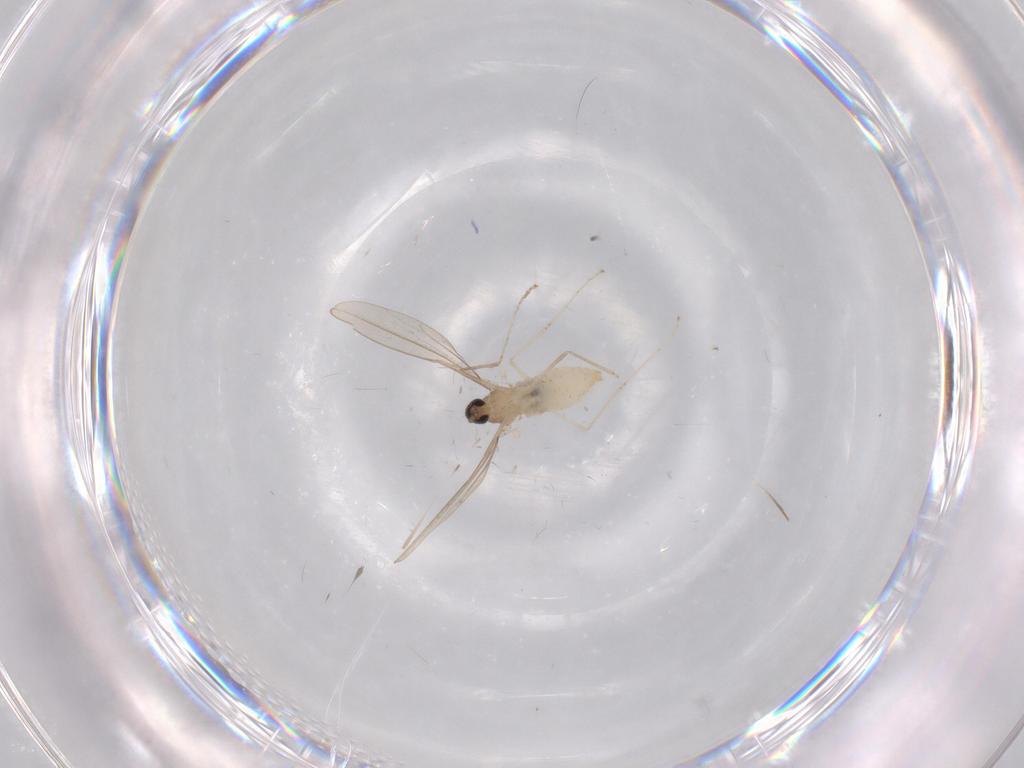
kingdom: Animalia
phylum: Arthropoda
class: Insecta
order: Diptera
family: Cecidomyiidae
